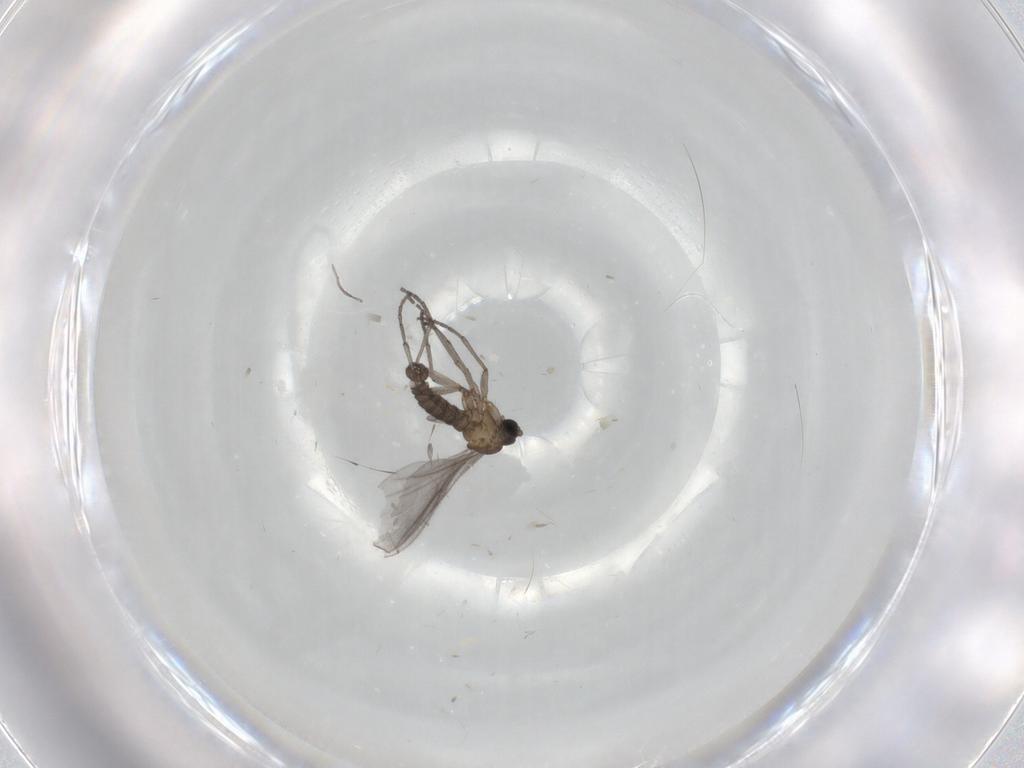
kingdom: Animalia
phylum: Arthropoda
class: Insecta
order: Diptera
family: Sciaridae
